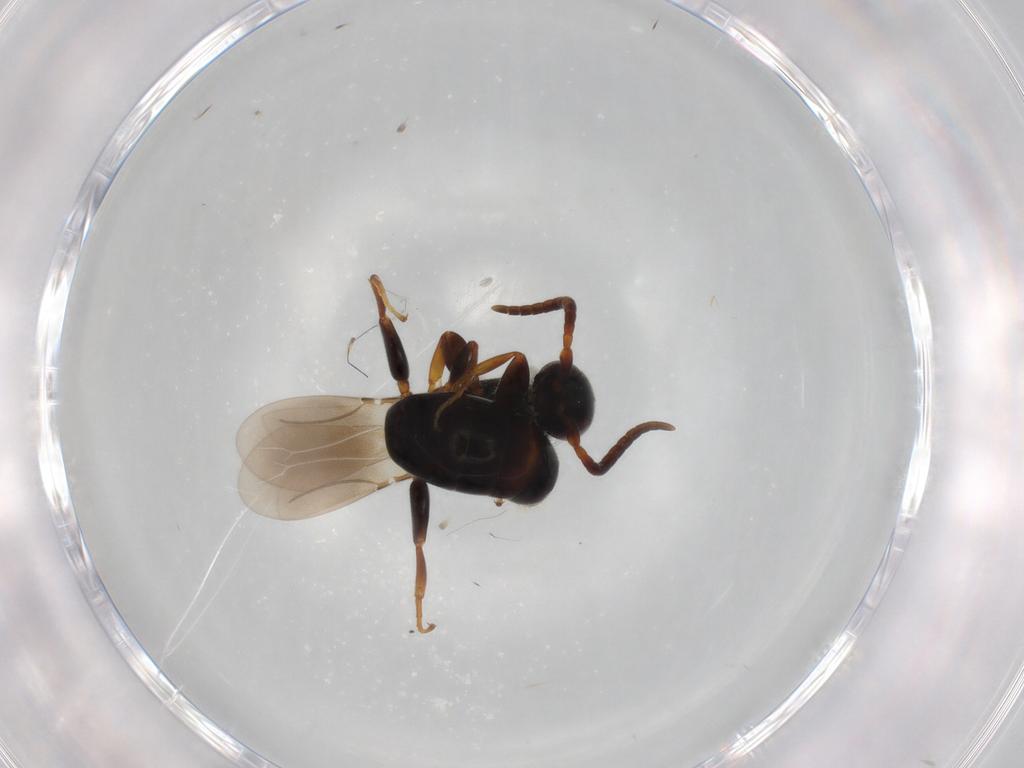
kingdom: Animalia
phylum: Arthropoda
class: Insecta
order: Hymenoptera
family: Bethylidae
